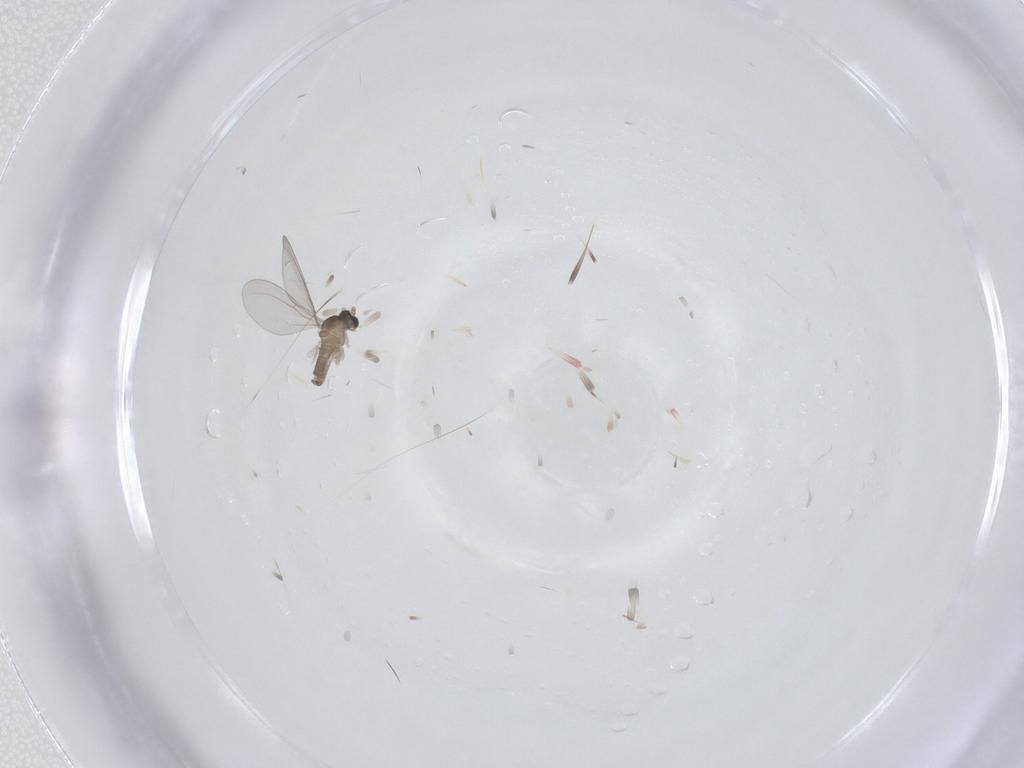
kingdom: Animalia
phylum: Arthropoda
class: Insecta
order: Diptera
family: Cecidomyiidae
